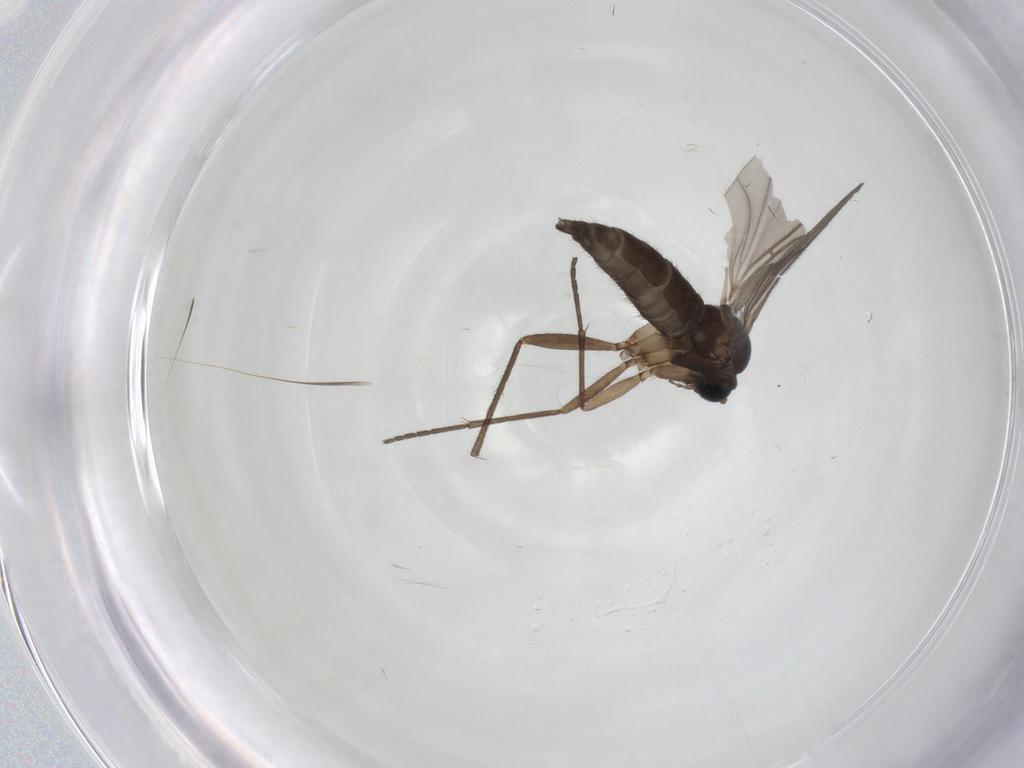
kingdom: Animalia
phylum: Arthropoda
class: Insecta
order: Diptera
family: Sciaridae
